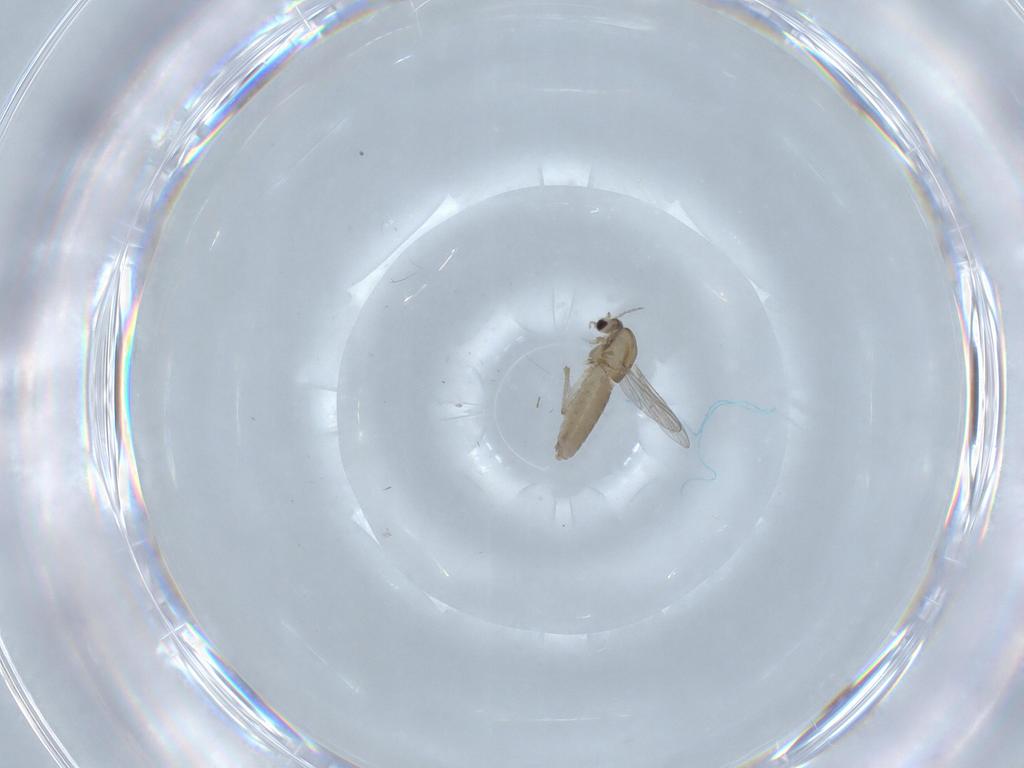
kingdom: Animalia
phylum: Arthropoda
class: Insecta
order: Diptera
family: Chironomidae
